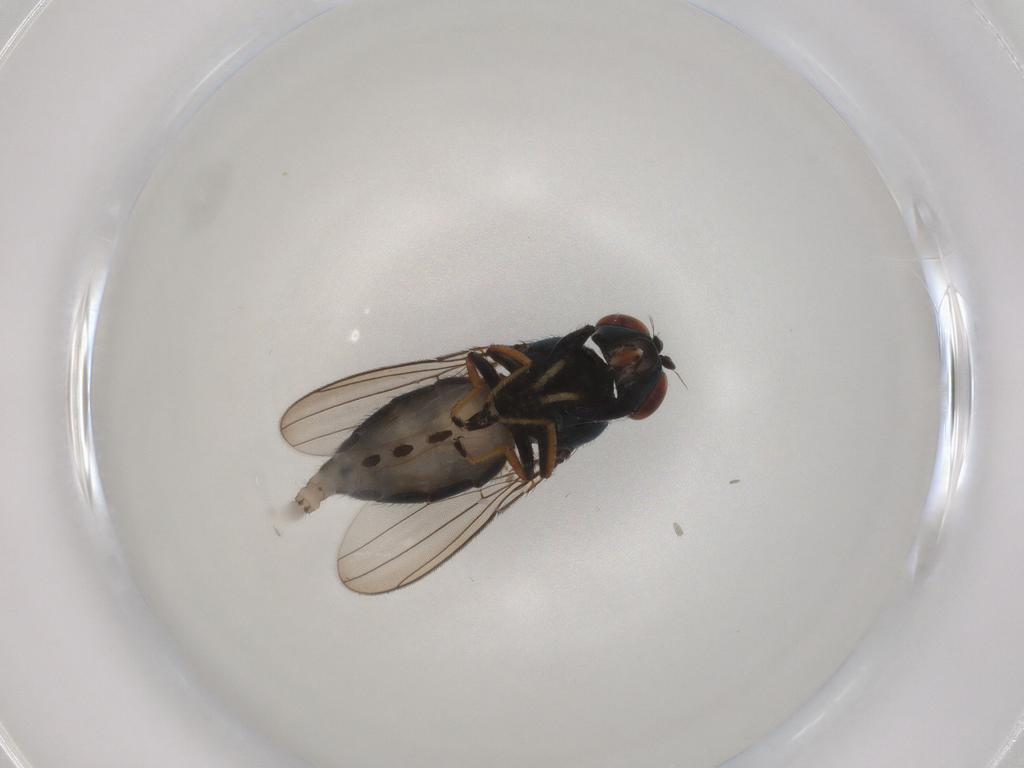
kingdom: Animalia
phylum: Arthropoda
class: Insecta
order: Diptera
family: Ephydridae
